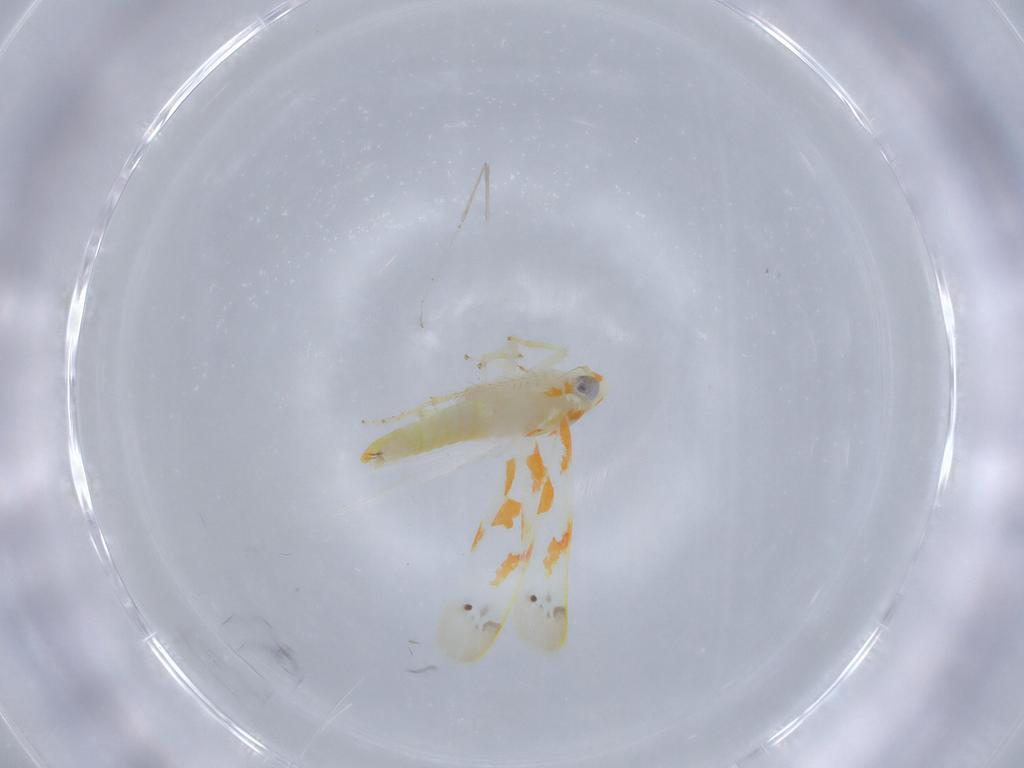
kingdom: Animalia
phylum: Arthropoda
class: Insecta
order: Hemiptera
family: Cicadellidae
